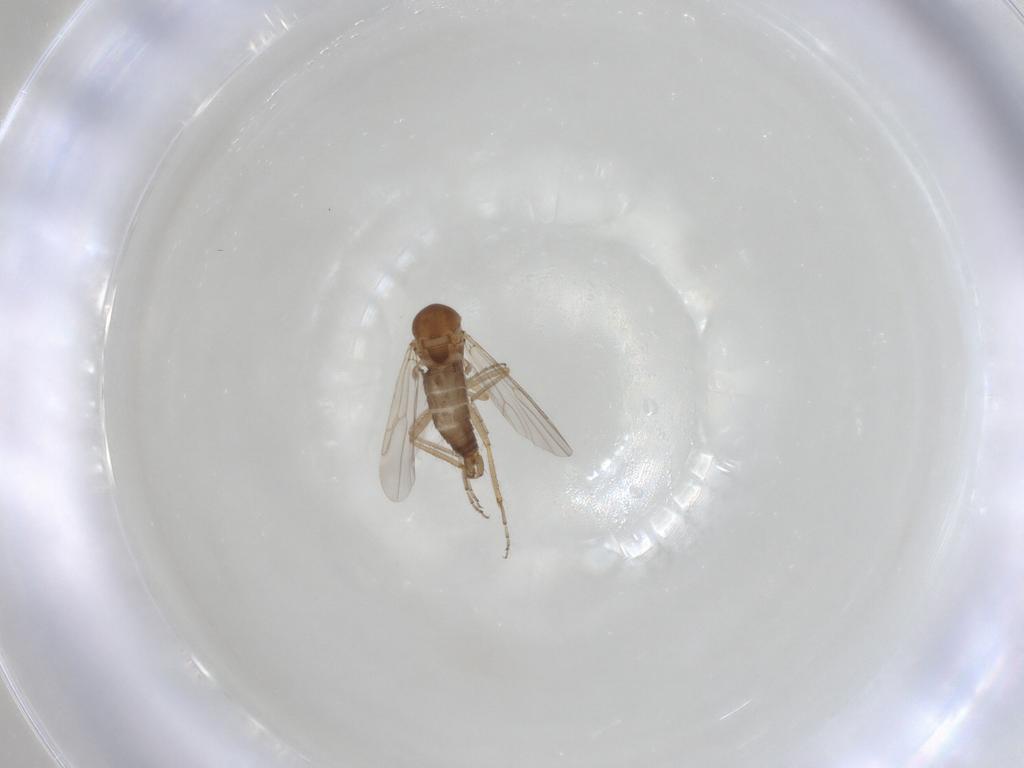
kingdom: Animalia
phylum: Arthropoda
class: Insecta
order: Diptera
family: Ceratopogonidae
